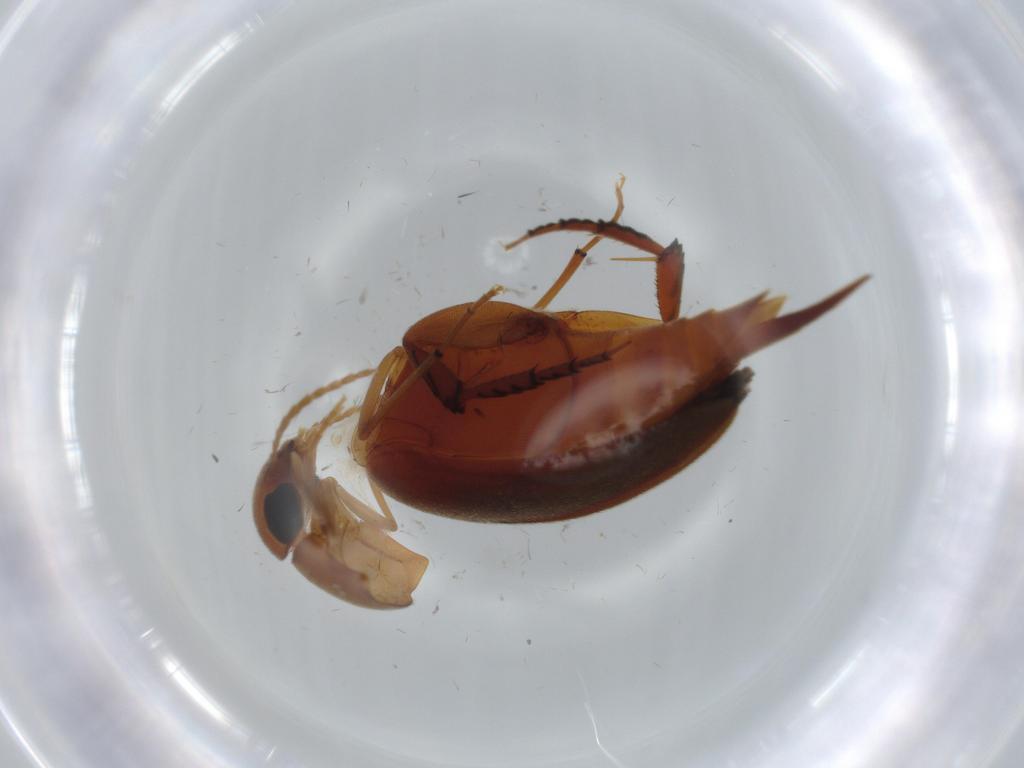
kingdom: Animalia
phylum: Arthropoda
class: Insecta
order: Coleoptera
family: Mordellidae
